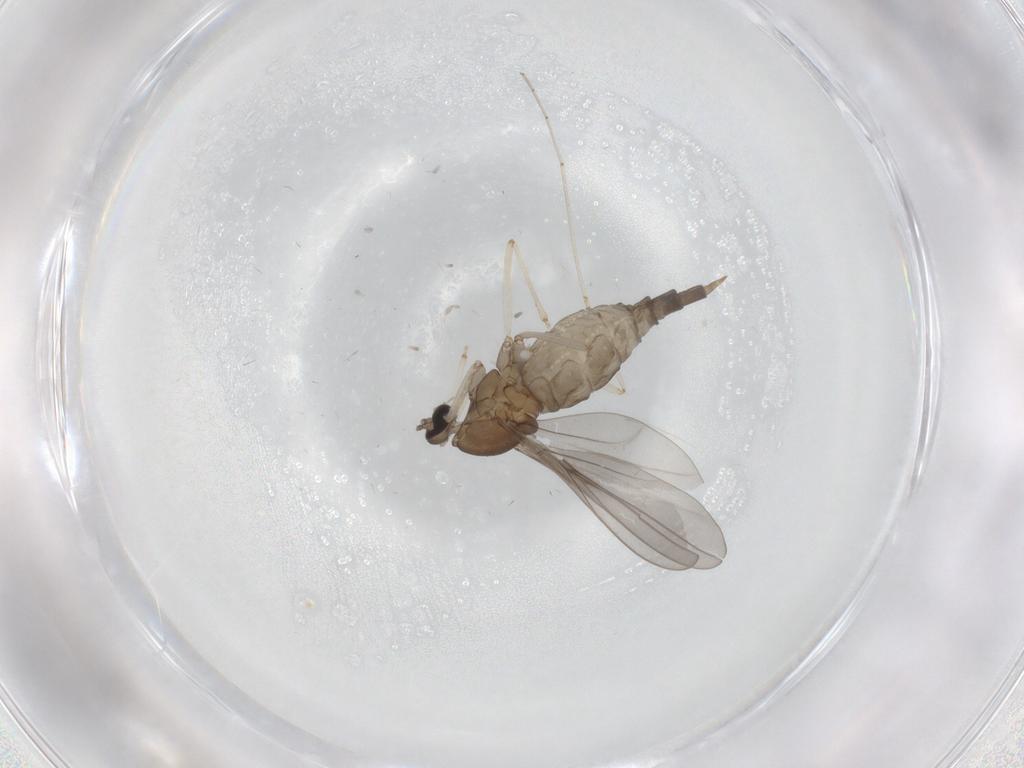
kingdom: Animalia
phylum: Arthropoda
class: Insecta
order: Diptera
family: Cecidomyiidae
